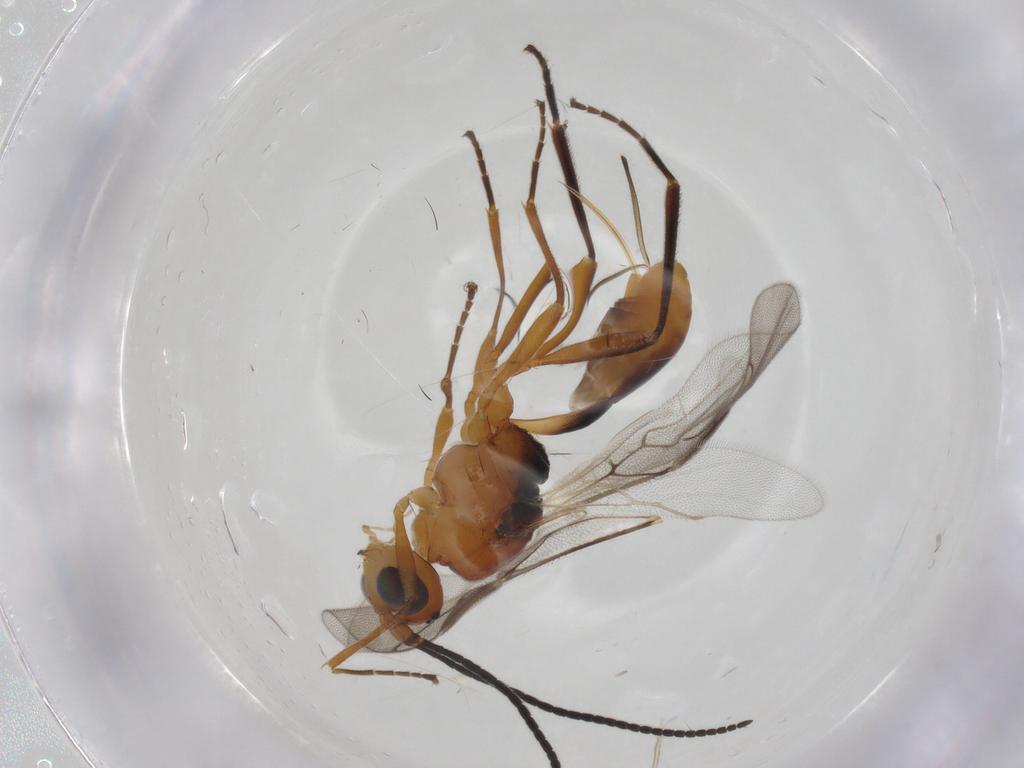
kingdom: Animalia
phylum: Arthropoda
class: Insecta
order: Hymenoptera
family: Braconidae
